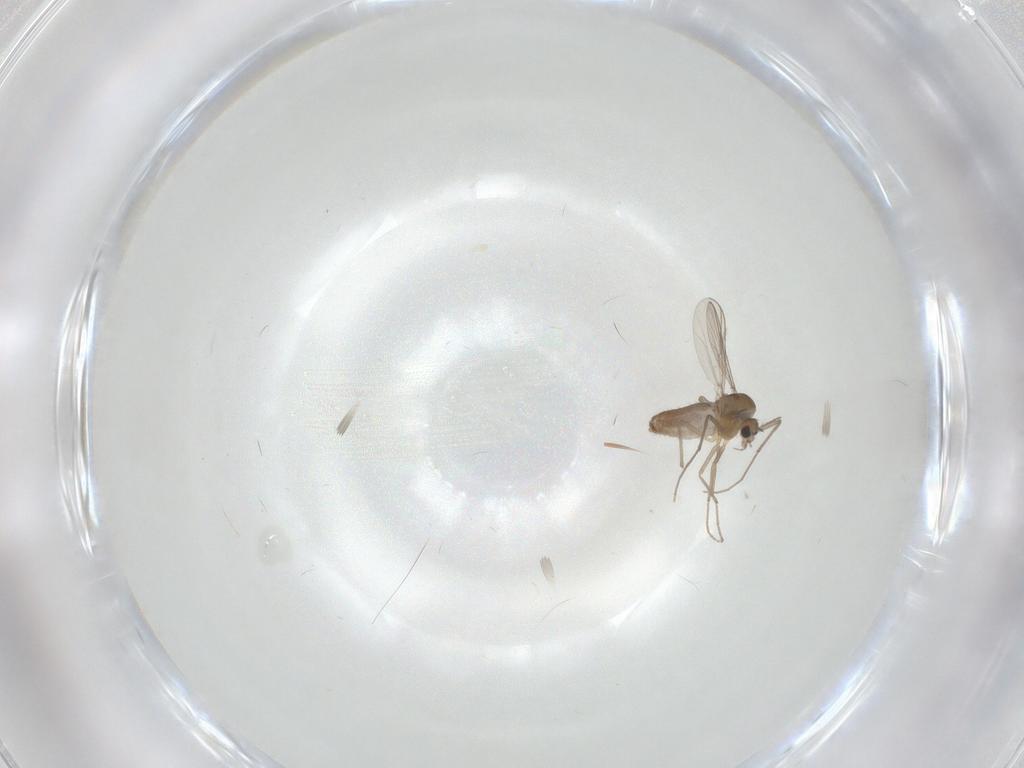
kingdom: Animalia
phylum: Arthropoda
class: Insecta
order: Diptera
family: Chironomidae
